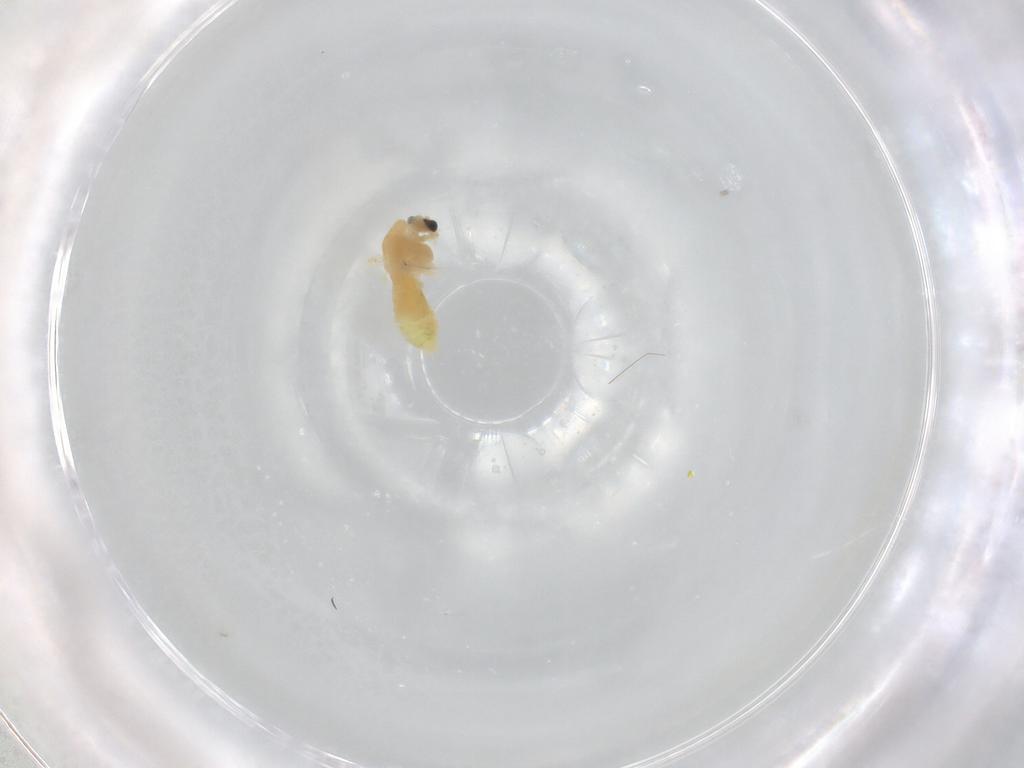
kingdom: Animalia
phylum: Arthropoda
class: Insecta
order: Diptera
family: Chironomidae
